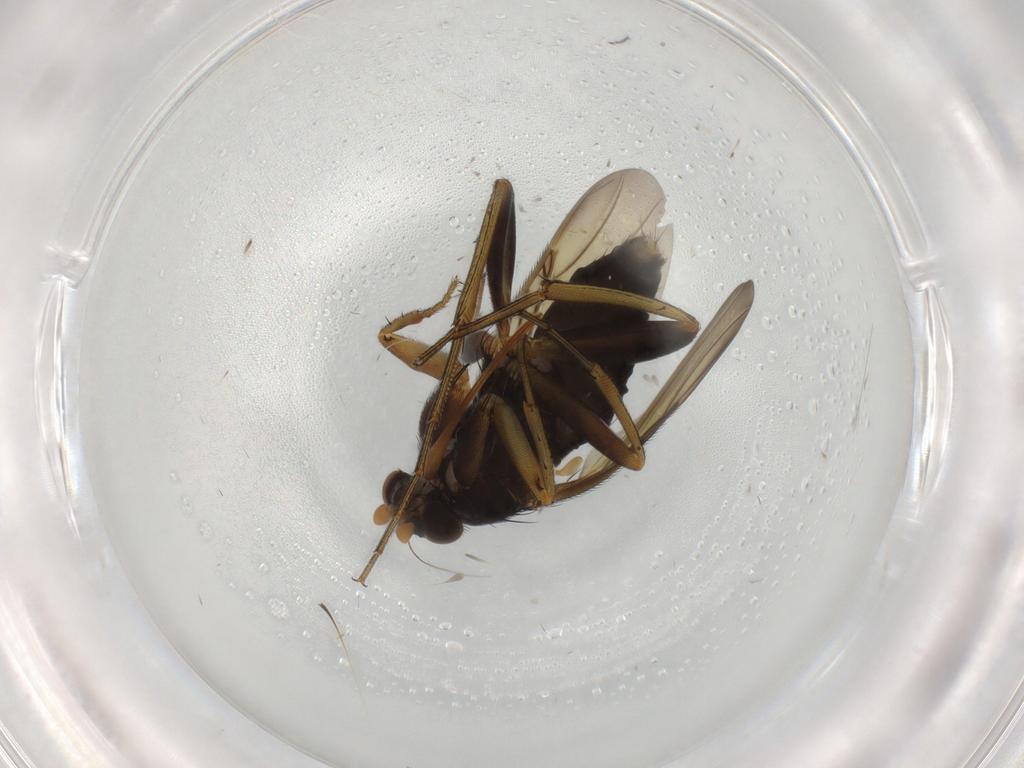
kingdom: Animalia
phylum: Arthropoda
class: Insecta
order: Diptera
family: Phoridae
